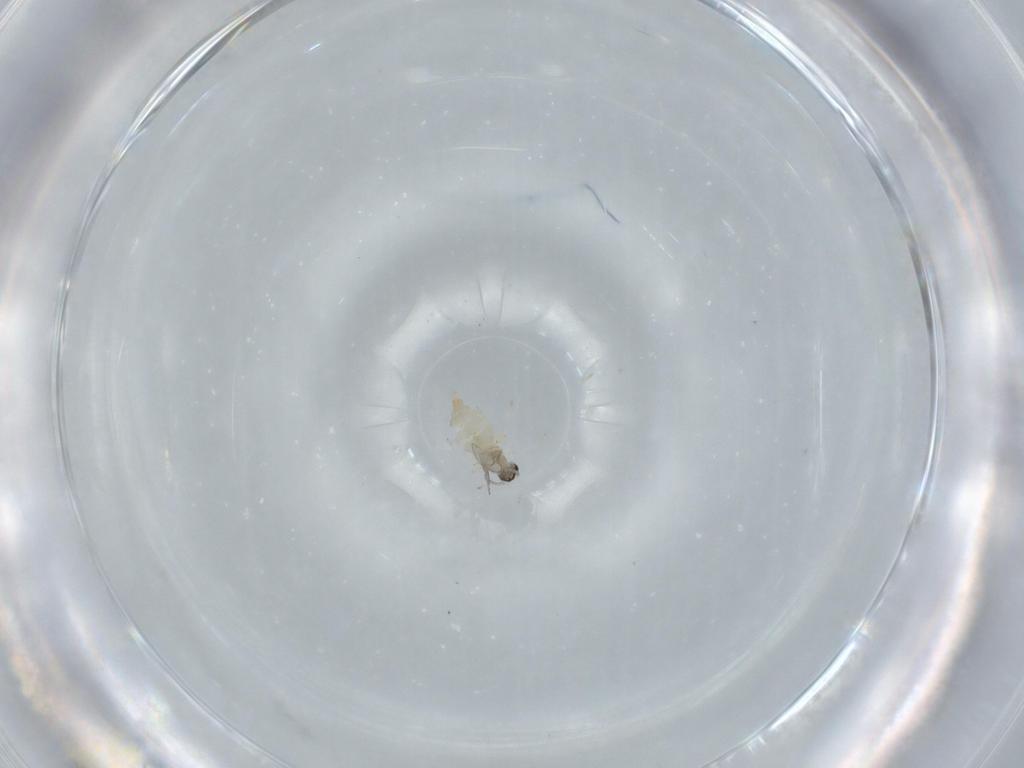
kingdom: Animalia
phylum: Arthropoda
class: Insecta
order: Diptera
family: Cecidomyiidae
